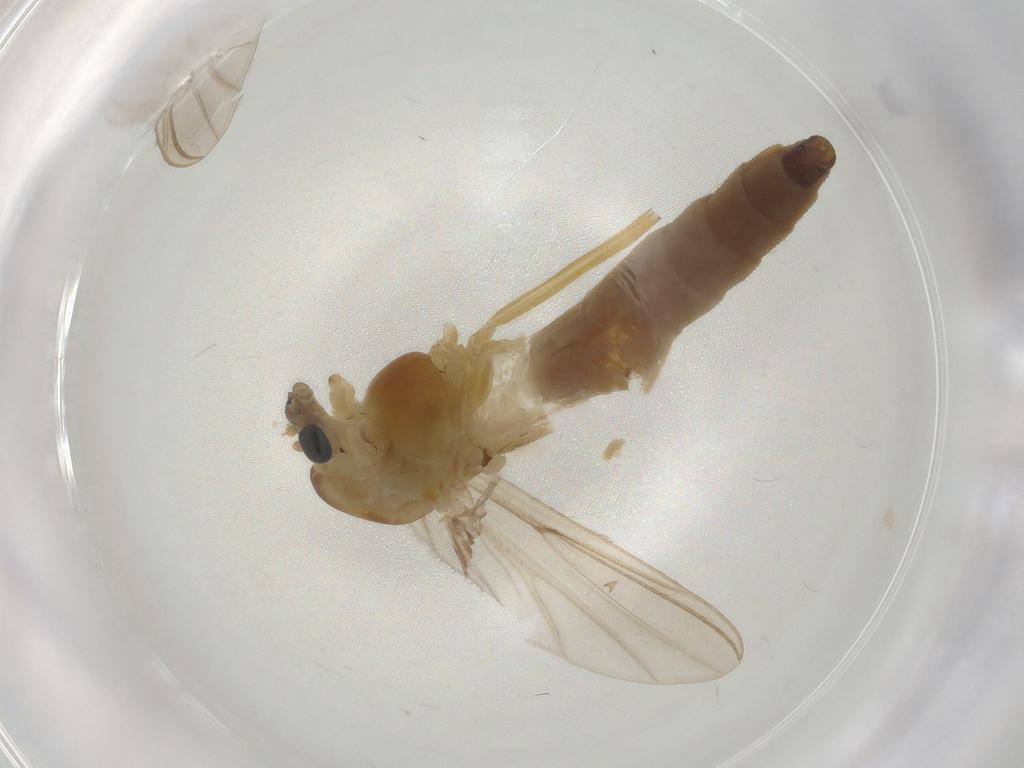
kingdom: Animalia
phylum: Arthropoda
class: Insecta
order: Diptera
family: Chironomidae
